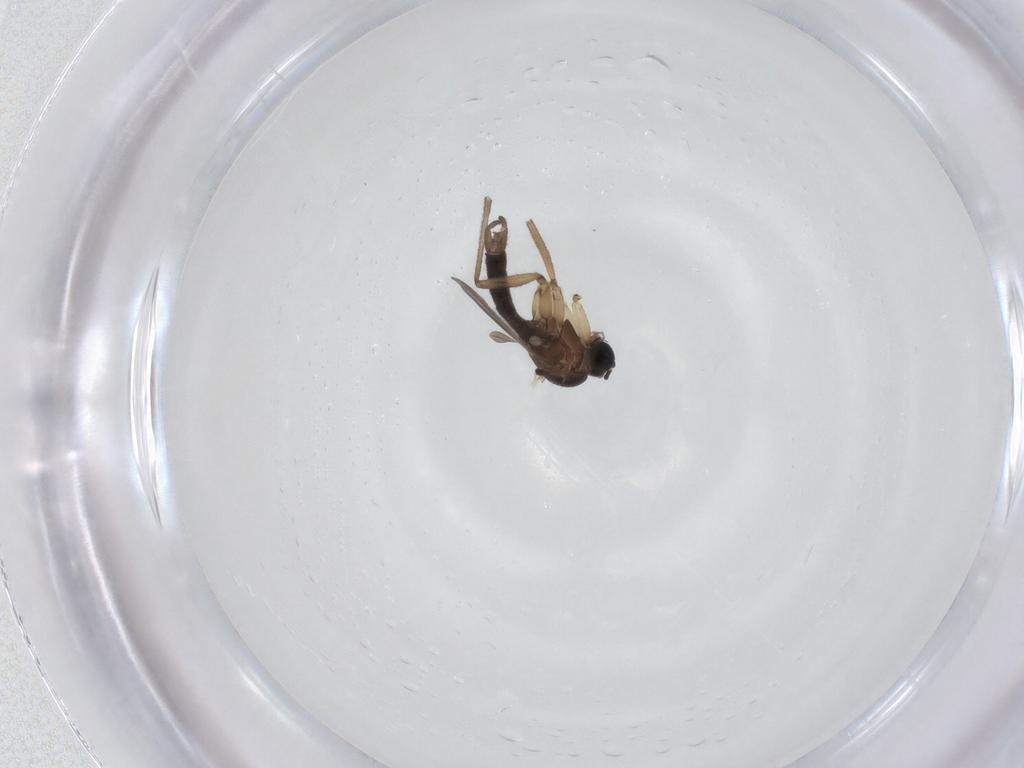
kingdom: Animalia
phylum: Arthropoda
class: Insecta
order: Diptera
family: Sciaridae
